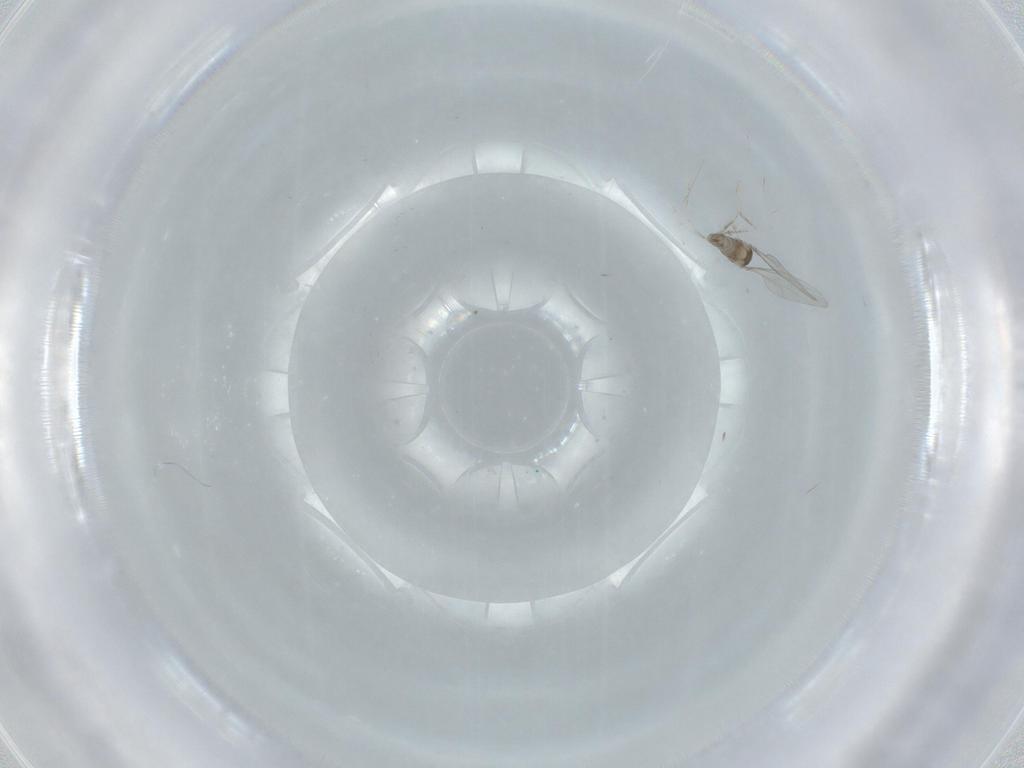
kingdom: Animalia
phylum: Arthropoda
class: Insecta
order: Diptera
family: Cecidomyiidae
